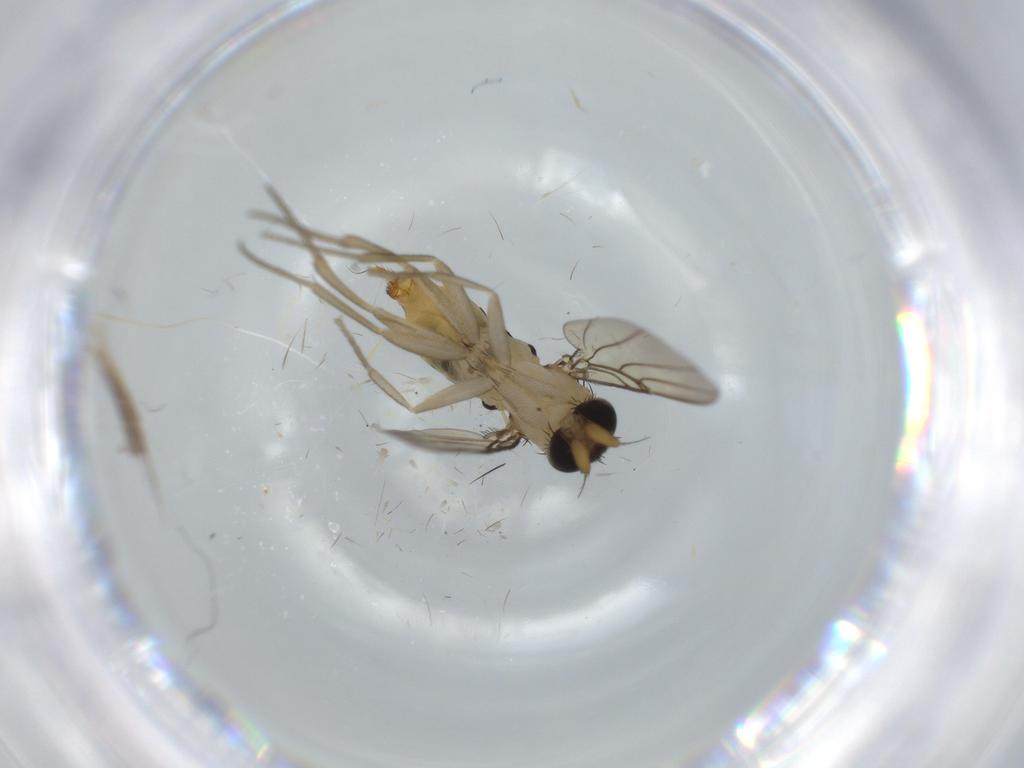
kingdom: Animalia
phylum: Arthropoda
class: Insecta
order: Diptera
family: Phoridae
